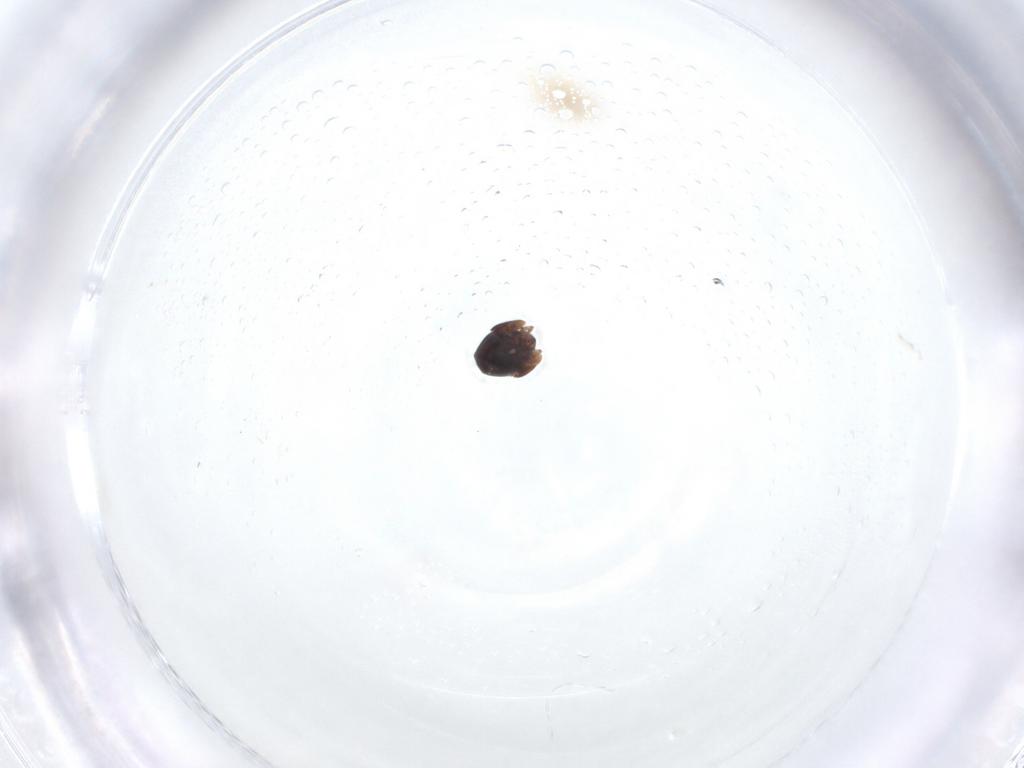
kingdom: Animalia
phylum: Arthropoda
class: Arachnida
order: Sarcoptiformes
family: Galumnidae
